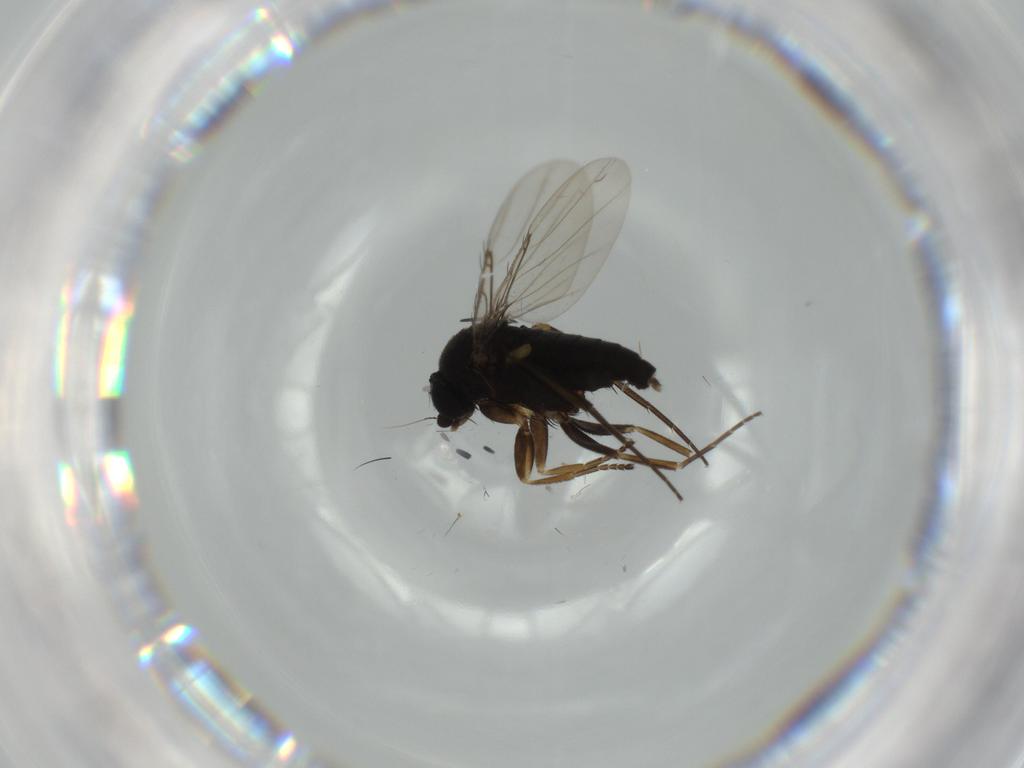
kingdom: Animalia
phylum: Arthropoda
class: Insecta
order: Diptera
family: Phoridae
